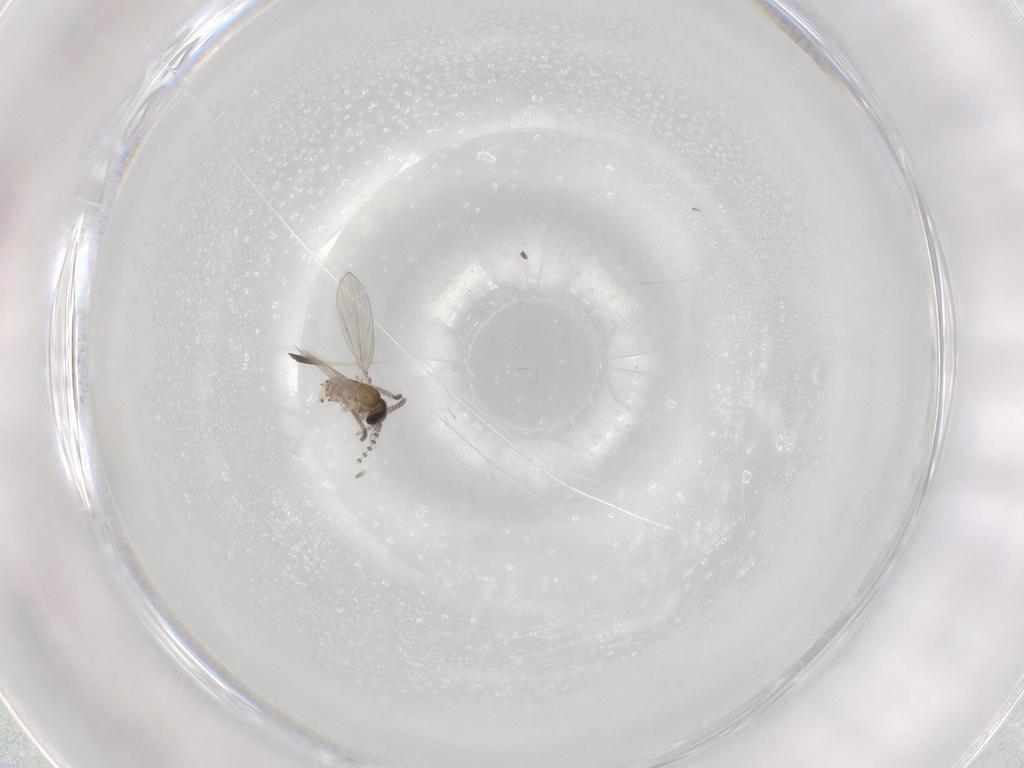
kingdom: Animalia
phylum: Arthropoda
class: Insecta
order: Diptera
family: Psychodidae
